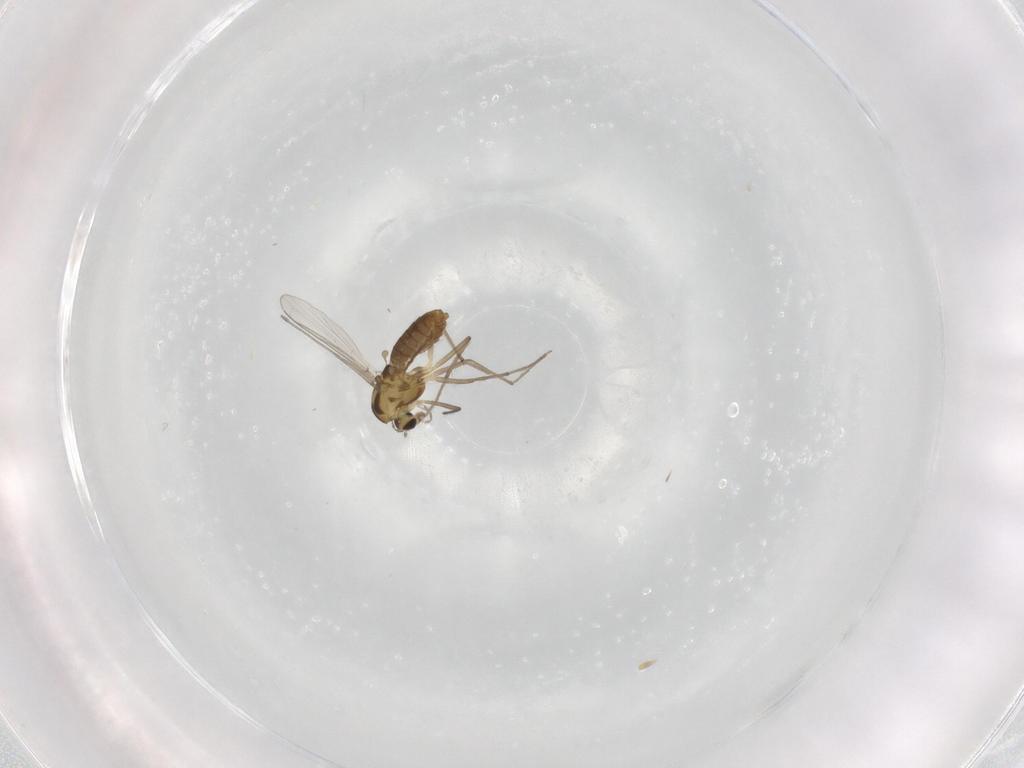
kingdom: Animalia
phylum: Arthropoda
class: Insecta
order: Diptera
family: Chironomidae
